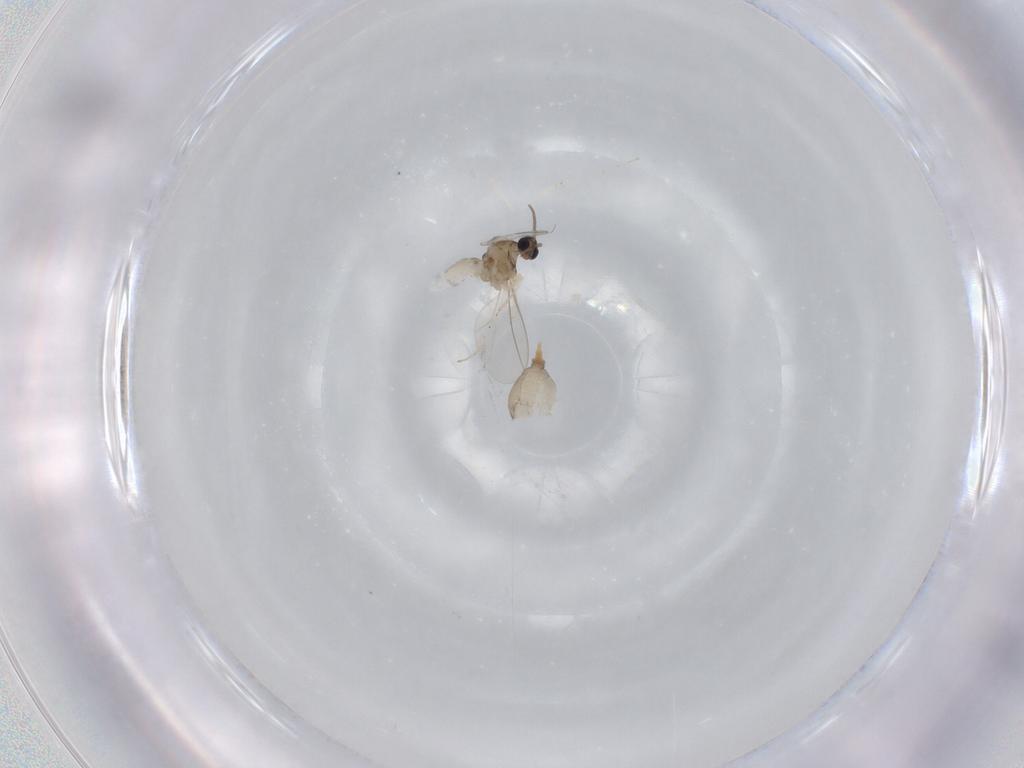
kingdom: Animalia
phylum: Arthropoda
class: Insecta
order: Diptera
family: Cecidomyiidae
